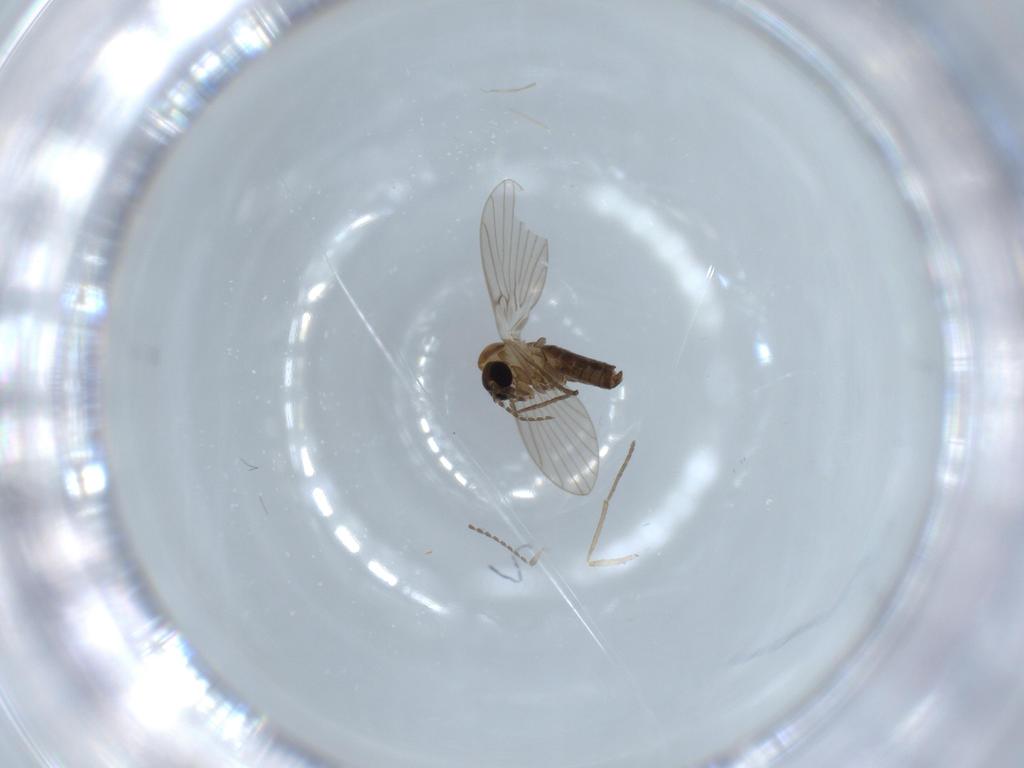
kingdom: Animalia
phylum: Arthropoda
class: Insecta
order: Diptera
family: Psychodidae
